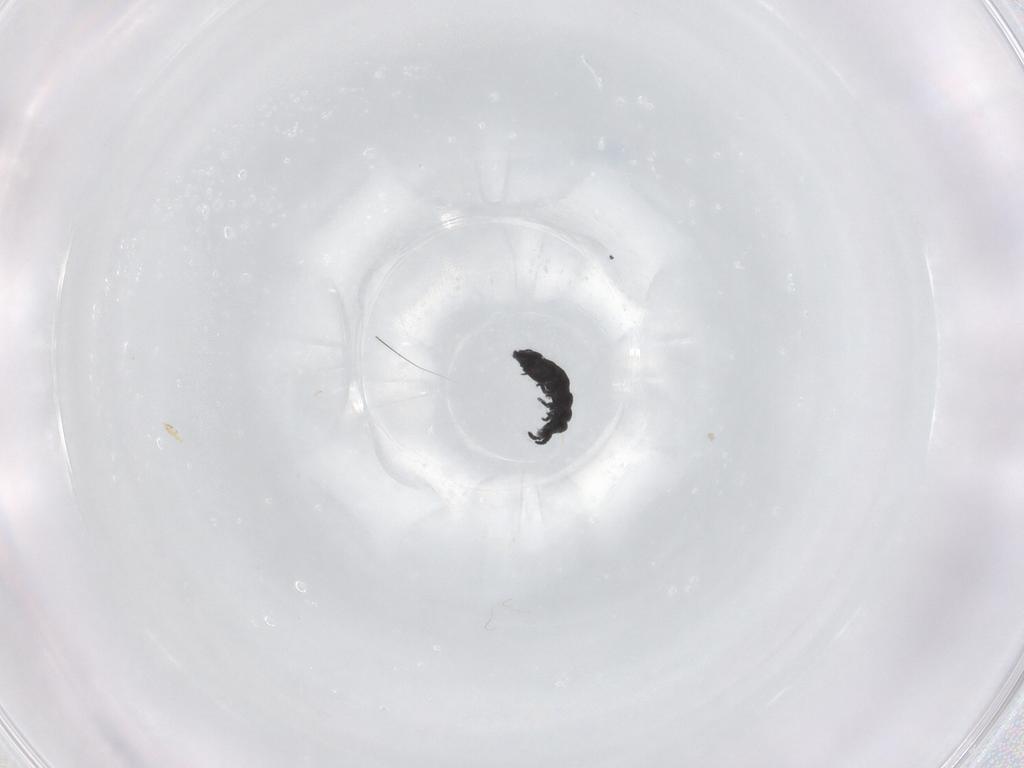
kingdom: Animalia
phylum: Arthropoda
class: Collembola
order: Poduromorpha
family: Hypogastruridae
